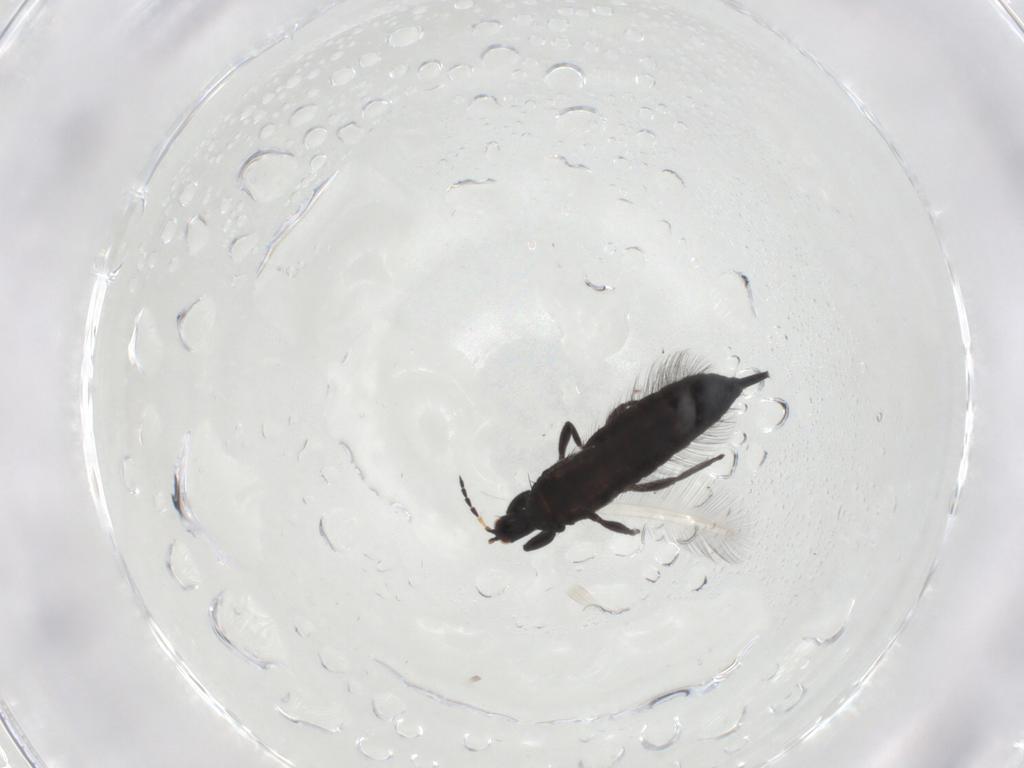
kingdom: Animalia
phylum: Arthropoda
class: Insecta
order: Thysanoptera
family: Phlaeothripidae
